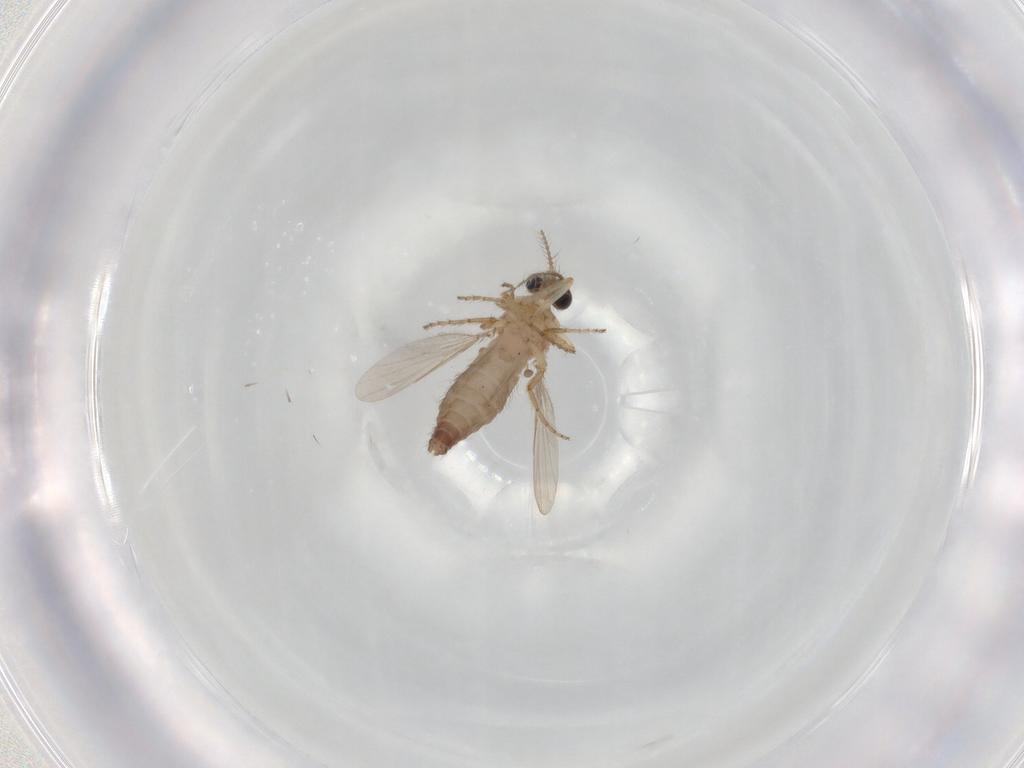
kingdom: Animalia
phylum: Arthropoda
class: Insecta
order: Diptera
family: Ceratopogonidae
